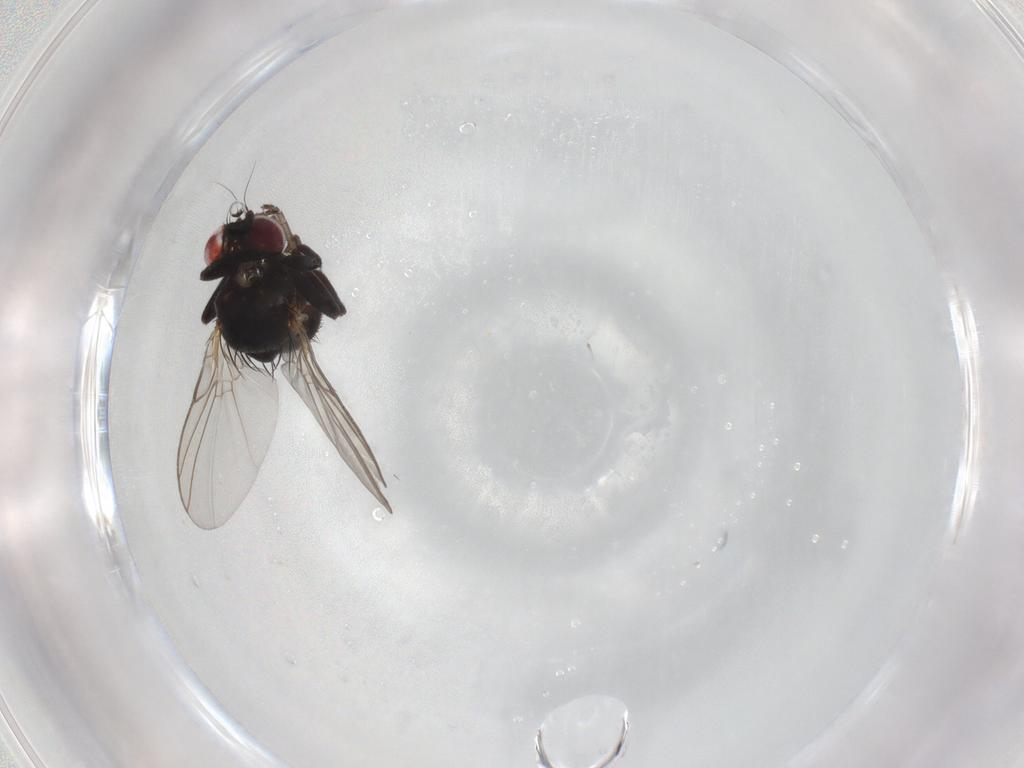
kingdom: Animalia
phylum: Arthropoda
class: Insecta
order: Diptera
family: Agromyzidae
